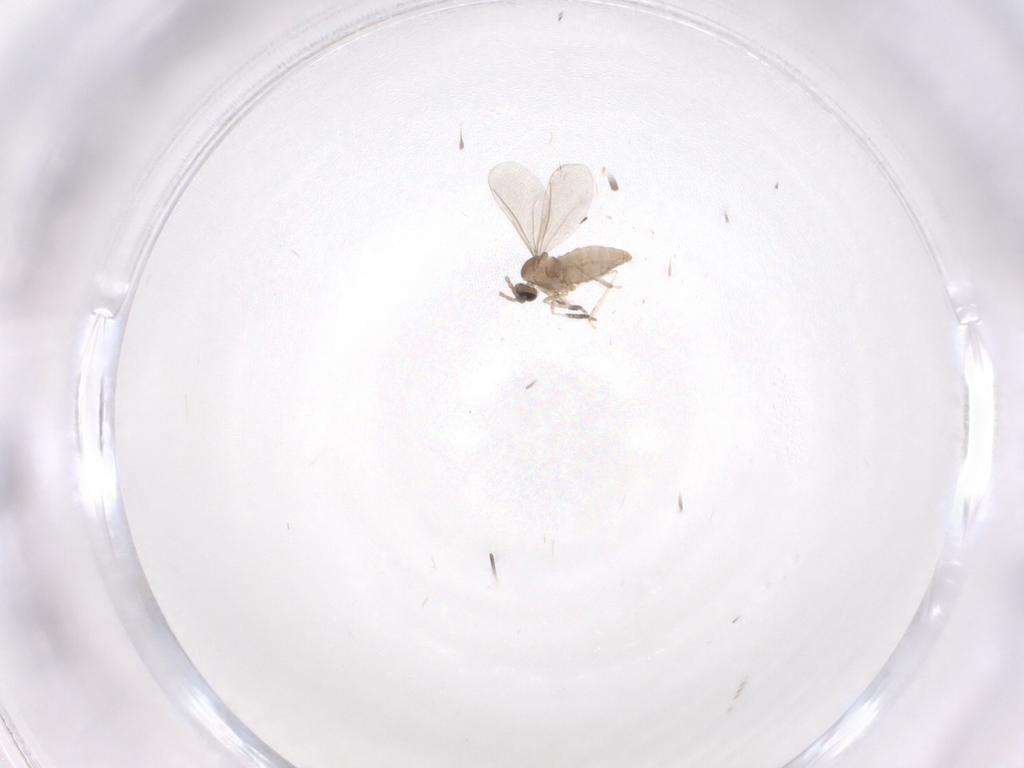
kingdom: Animalia
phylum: Arthropoda
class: Insecta
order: Diptera
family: Cecidomyiidae
